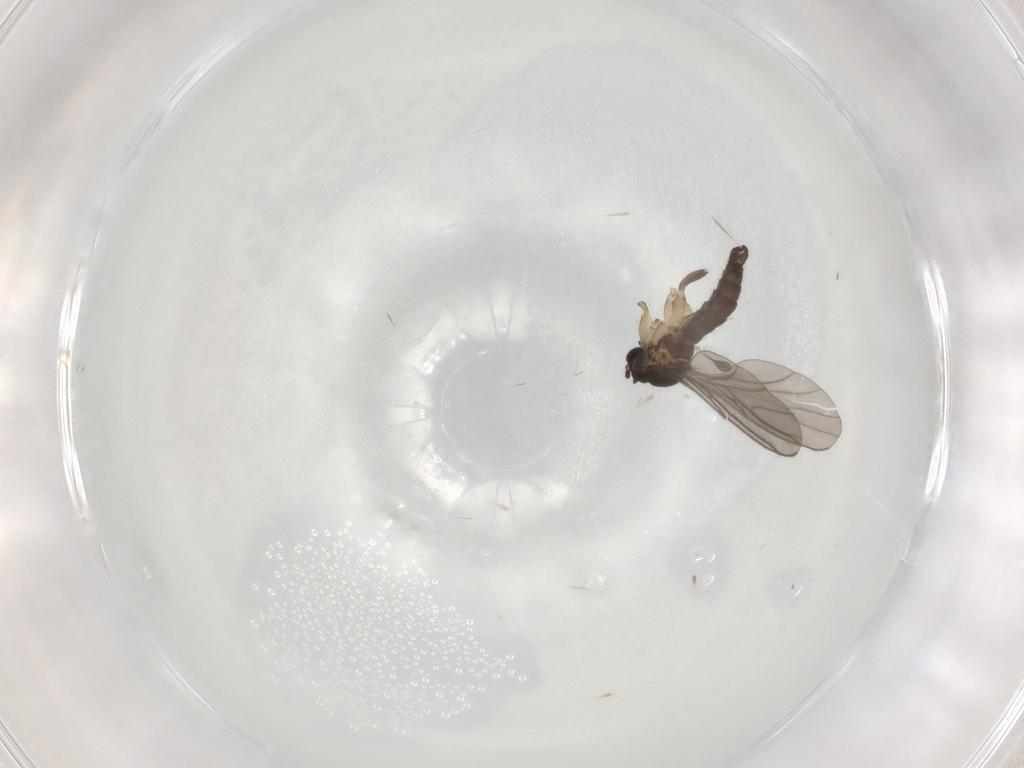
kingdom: Animalia
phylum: Arthropoda
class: Insecta
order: Diptera
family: Sciaridae
